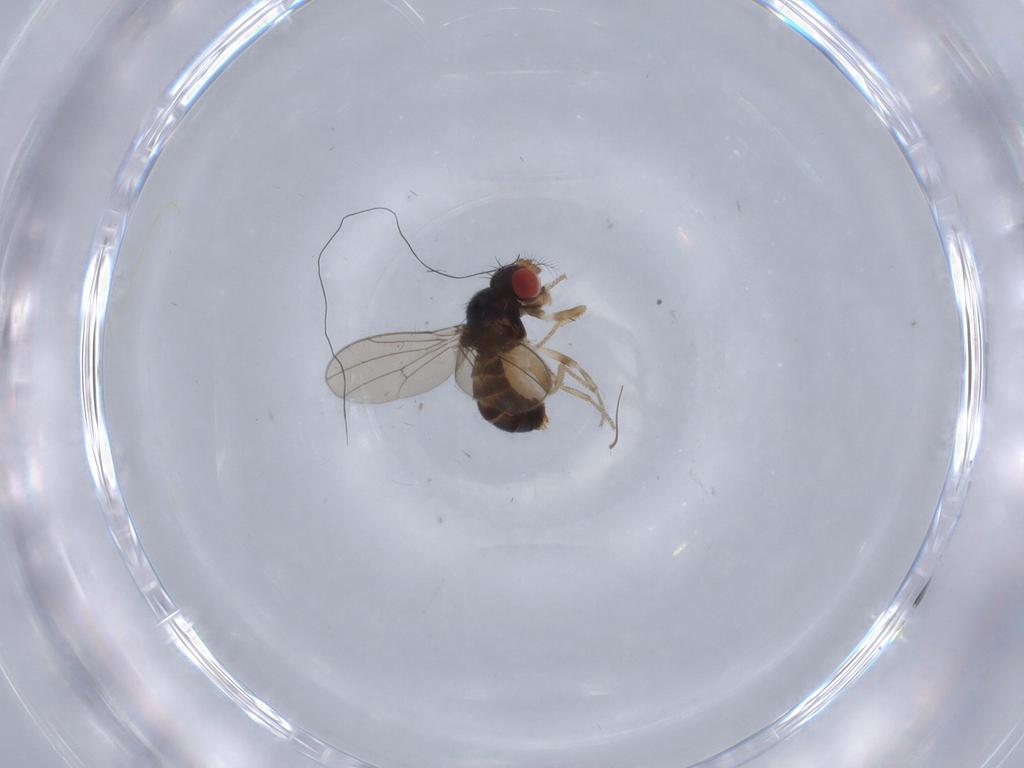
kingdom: Animalia
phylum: Arthropoda
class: Insecta
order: Diptera
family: Drosophilidae
